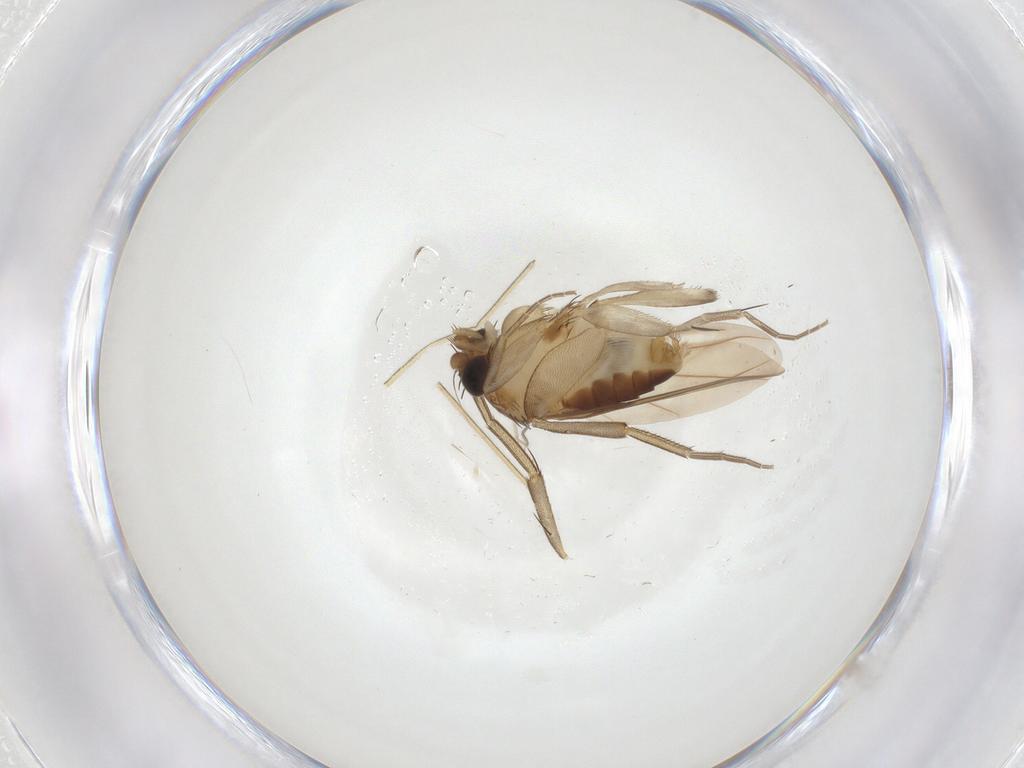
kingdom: Animalia
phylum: Arthropoda
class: Insecta
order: Diptera
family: Phoridae
